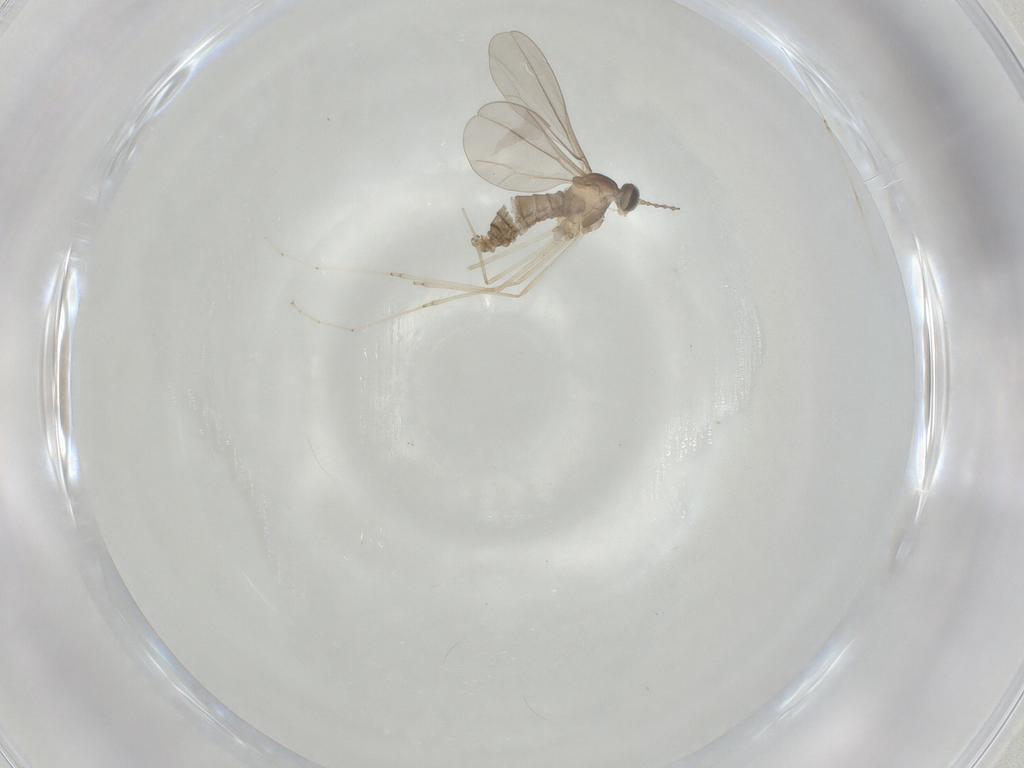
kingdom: Animalia
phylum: Arthropoda
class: Insecta
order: Diptera
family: Cecidomyiidae
